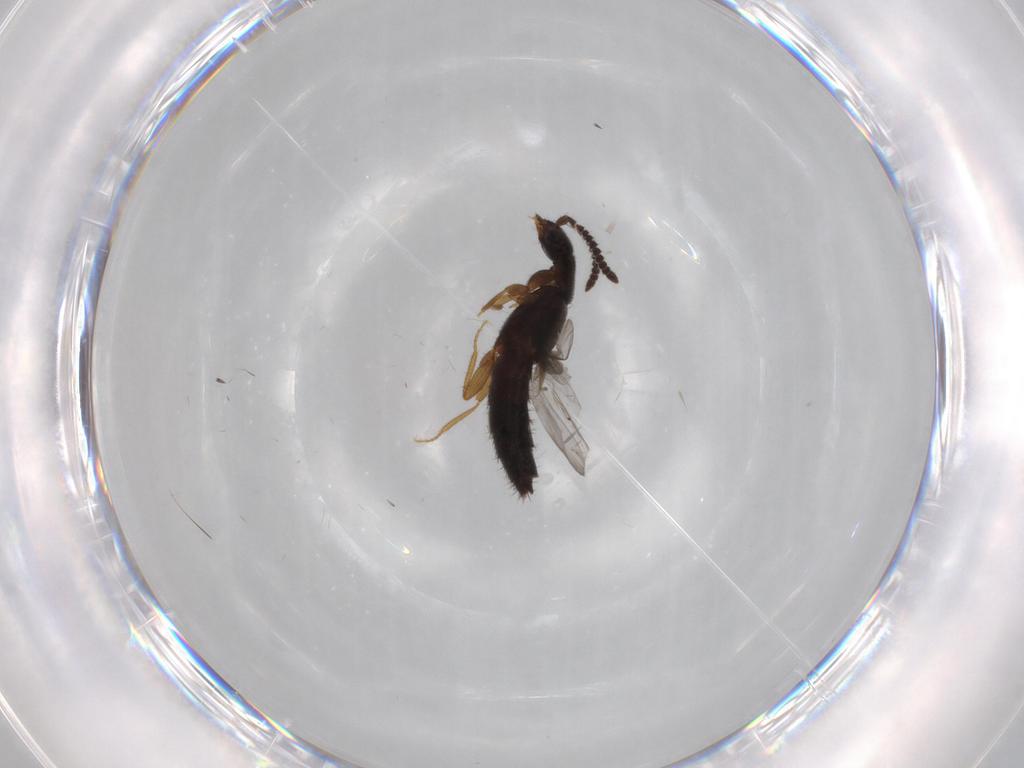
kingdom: Animalia
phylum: Arthropoda
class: Insecta
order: Coleoptera
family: Staphylinidae
